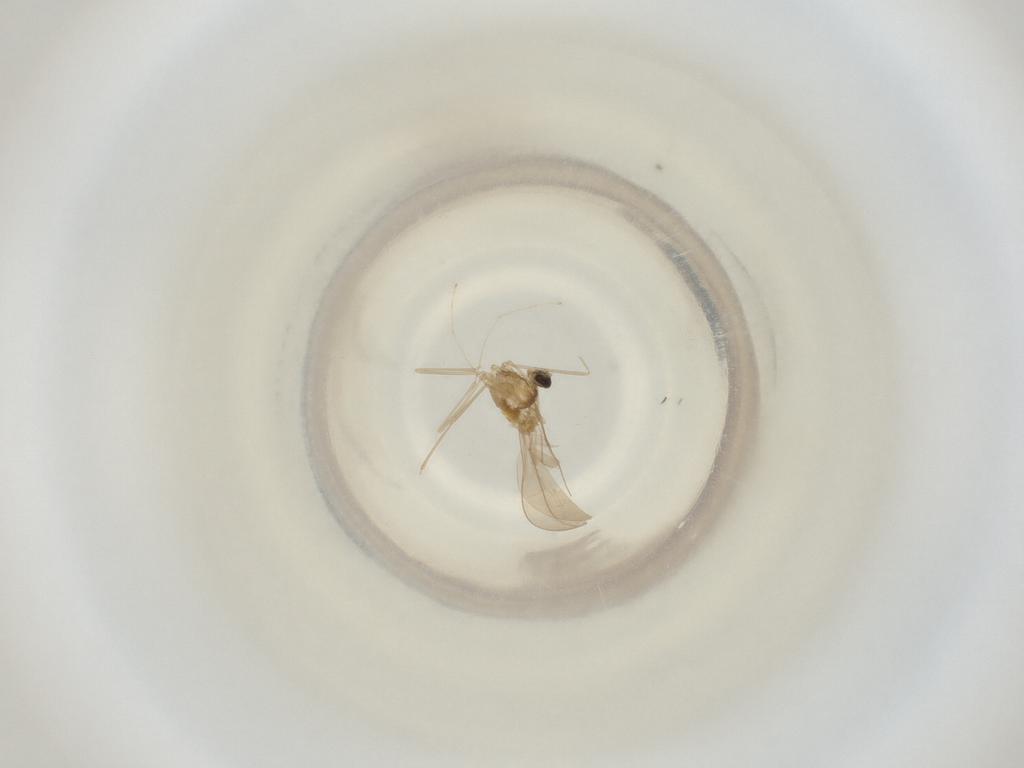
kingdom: Animalia
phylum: Arthropoda
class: Insecta
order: Diptera
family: Cecidomyiidae
